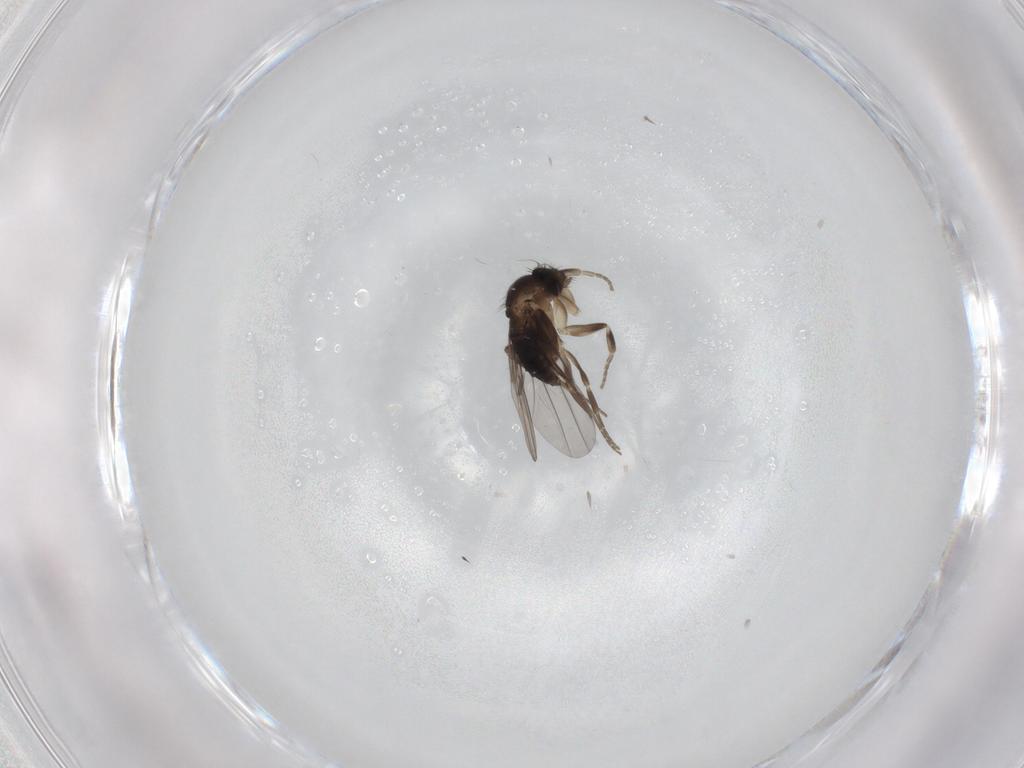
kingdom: Animalia
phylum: Arthropoda
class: Insecta
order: Diptera
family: Phoridae
